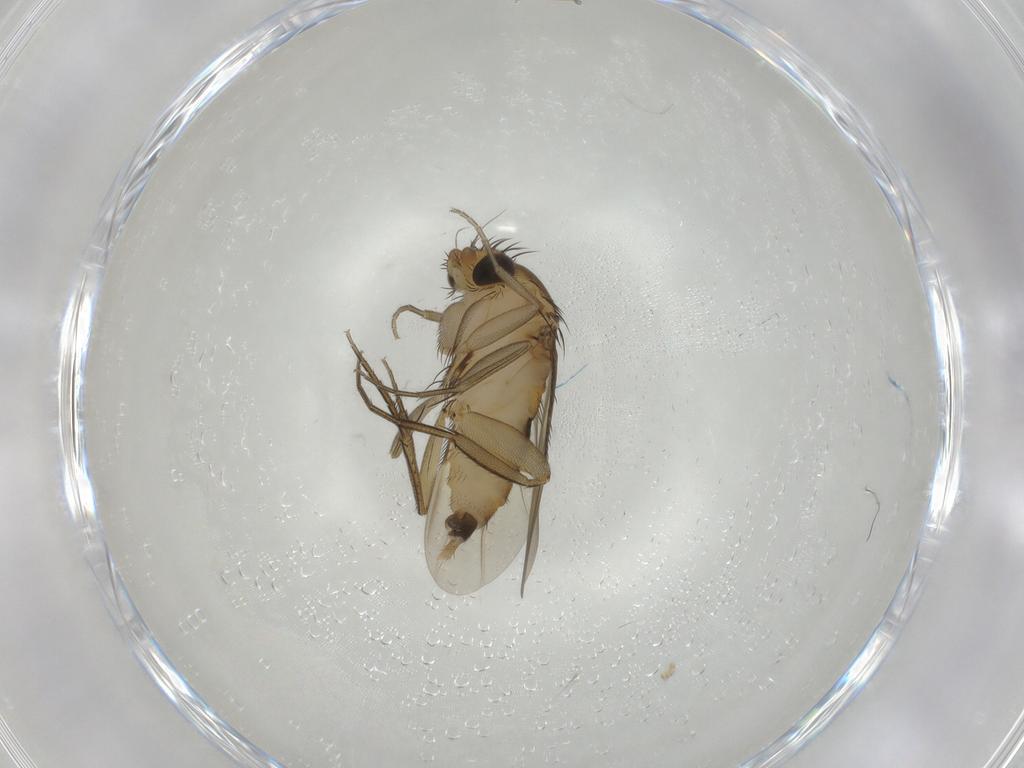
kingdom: Animalia
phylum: Arthropoda
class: Insecta
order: Diptera
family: Phoridae
